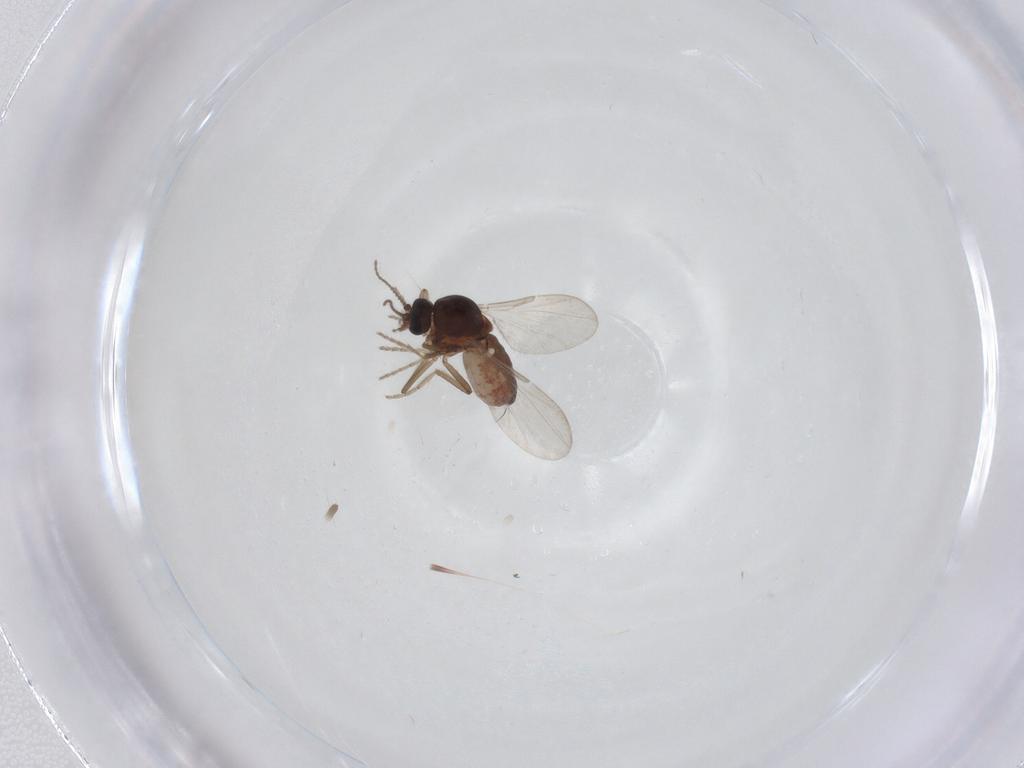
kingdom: Animalia
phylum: Arthropoda
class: Insecta
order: Diptera
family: Ceratopogonidae
